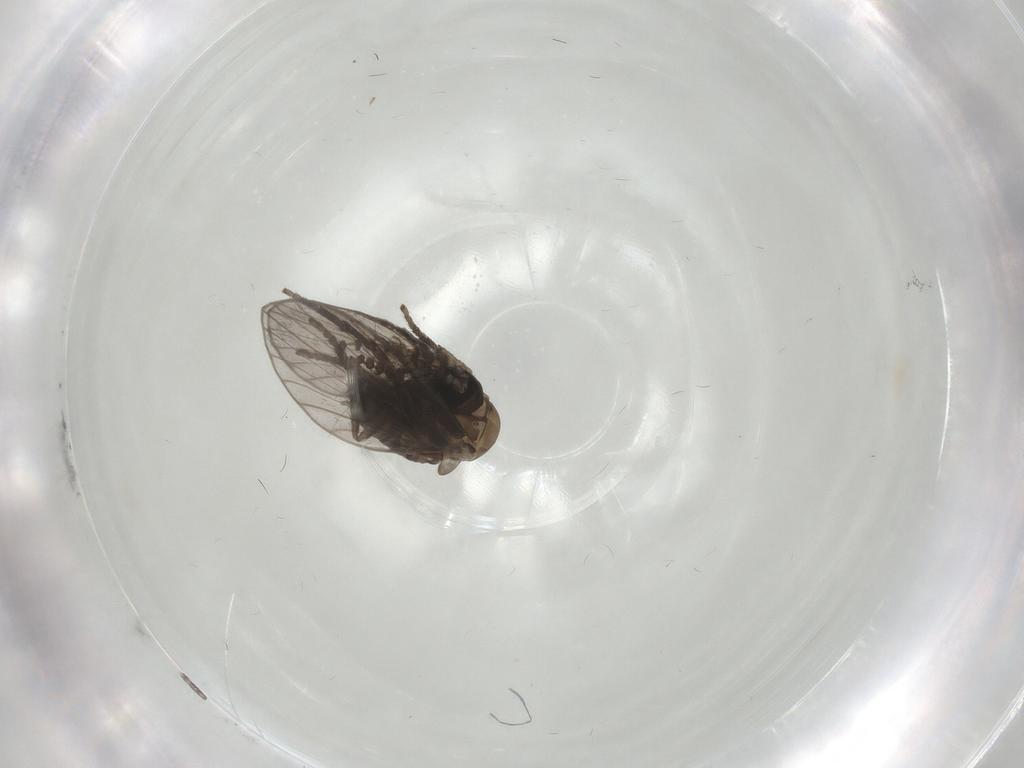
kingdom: Animalia
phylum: Arthropoda
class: Insecta
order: Diptera
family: Psychodidae
